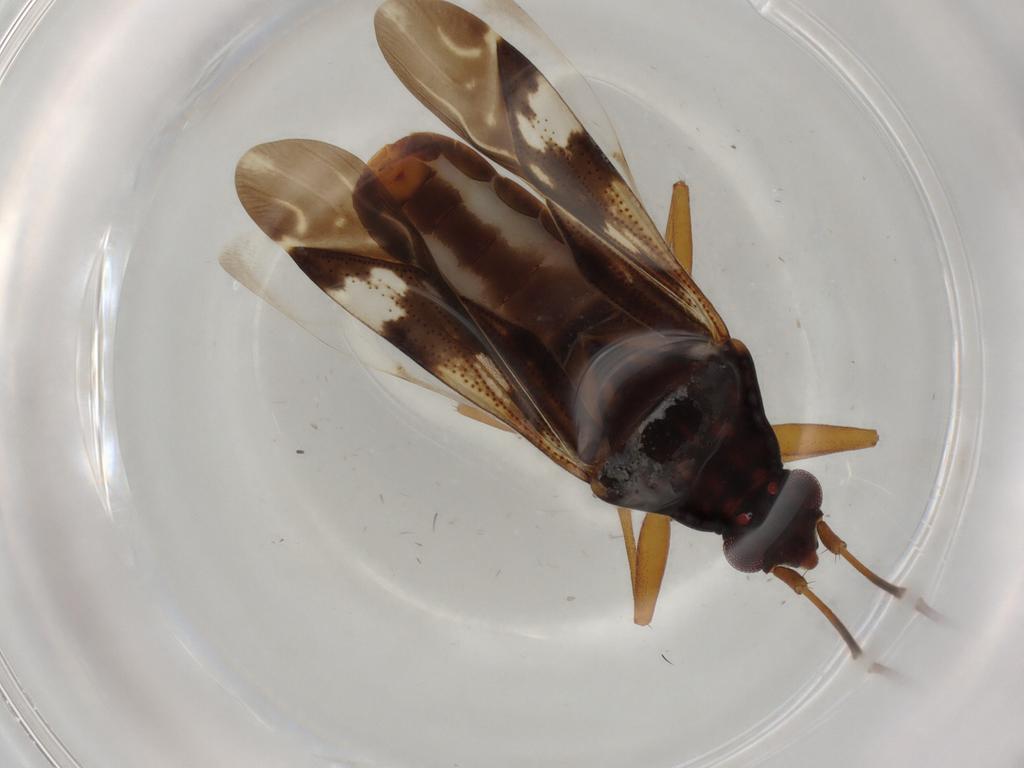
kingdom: Animalia
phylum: Arthropoda
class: Insecta
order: Hemiptera
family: Rhyparochromidae
